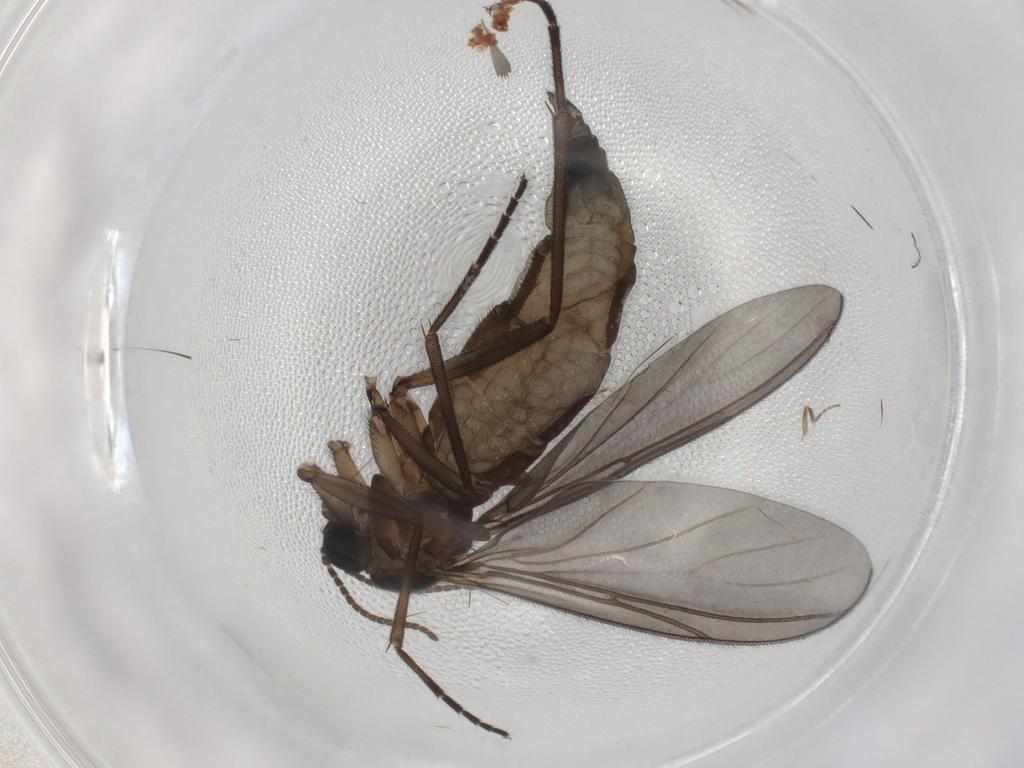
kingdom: Animalia
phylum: Arthropoda
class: Insecta
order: Diptera
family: Sciaridae
